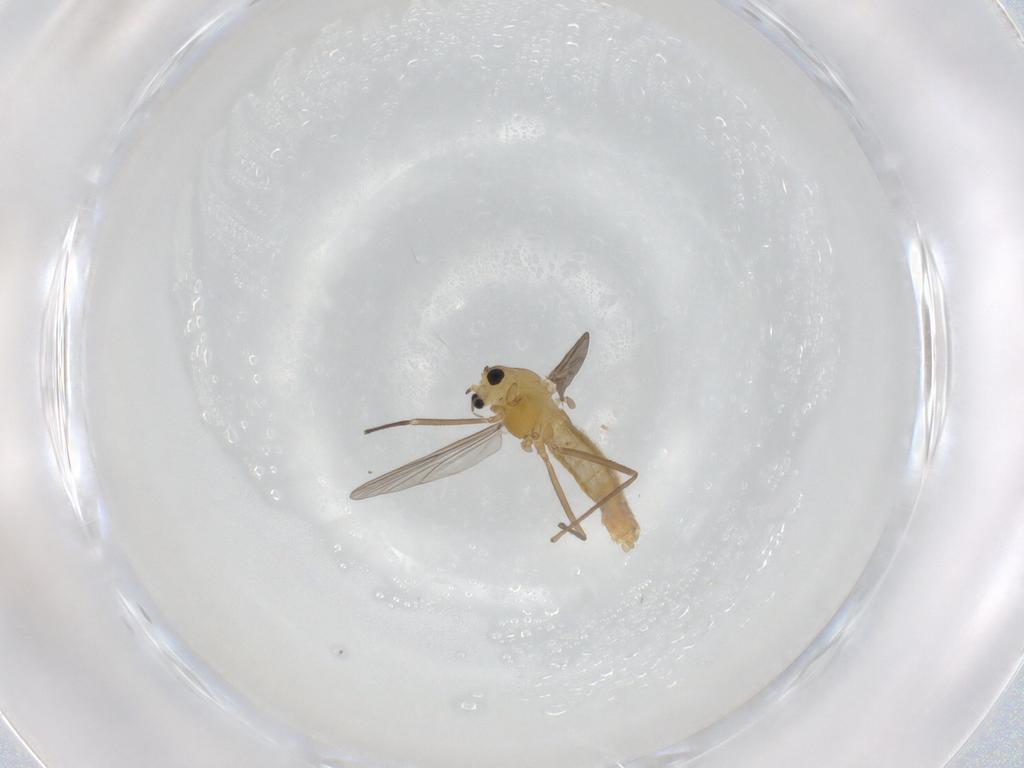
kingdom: Animalia
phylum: Arthropoda
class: Insecta
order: Diptera
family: Chironomidae
